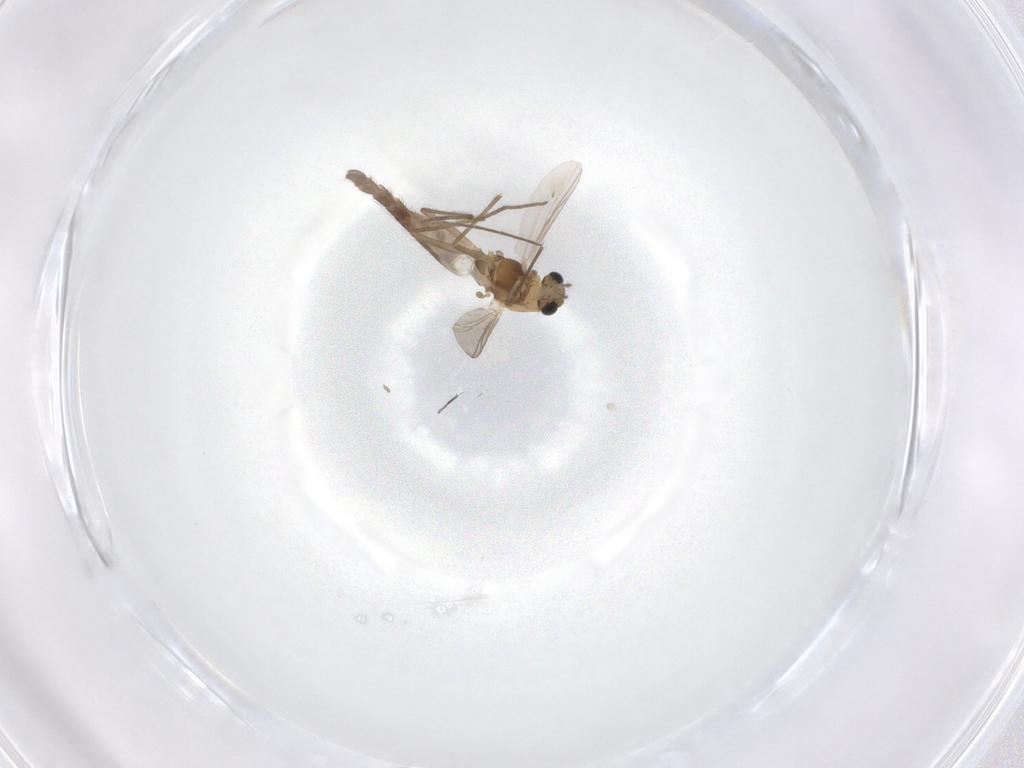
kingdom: Animalia
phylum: Arthropoda
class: Insecta
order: Diptera
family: Chironomidae
